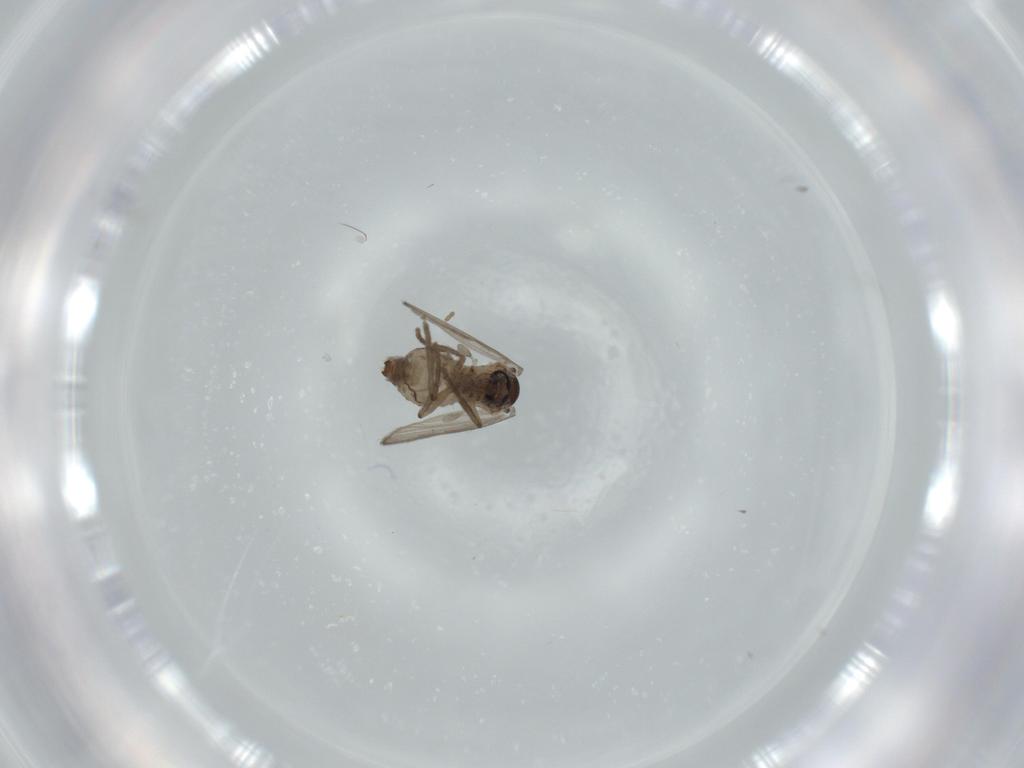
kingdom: Animalia
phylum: Arthropoda
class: Insecta
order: Diptera
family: Psychodidae
